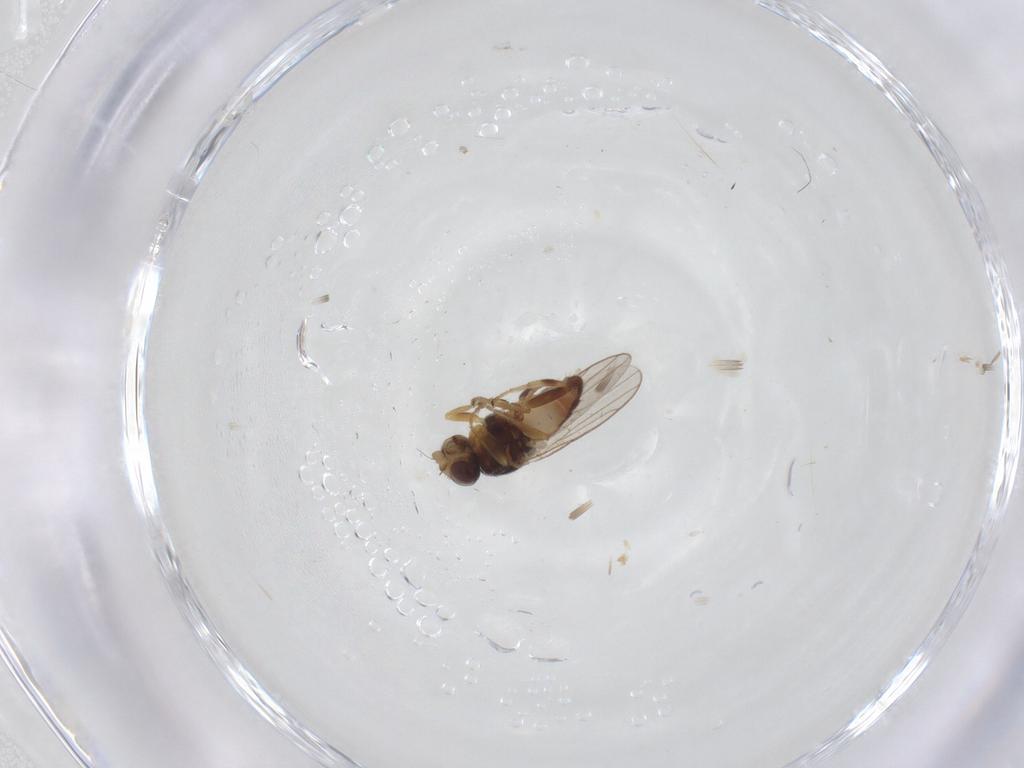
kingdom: Animalia
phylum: Arthropoda
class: Insecta
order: Diptera
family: Chloropidae
